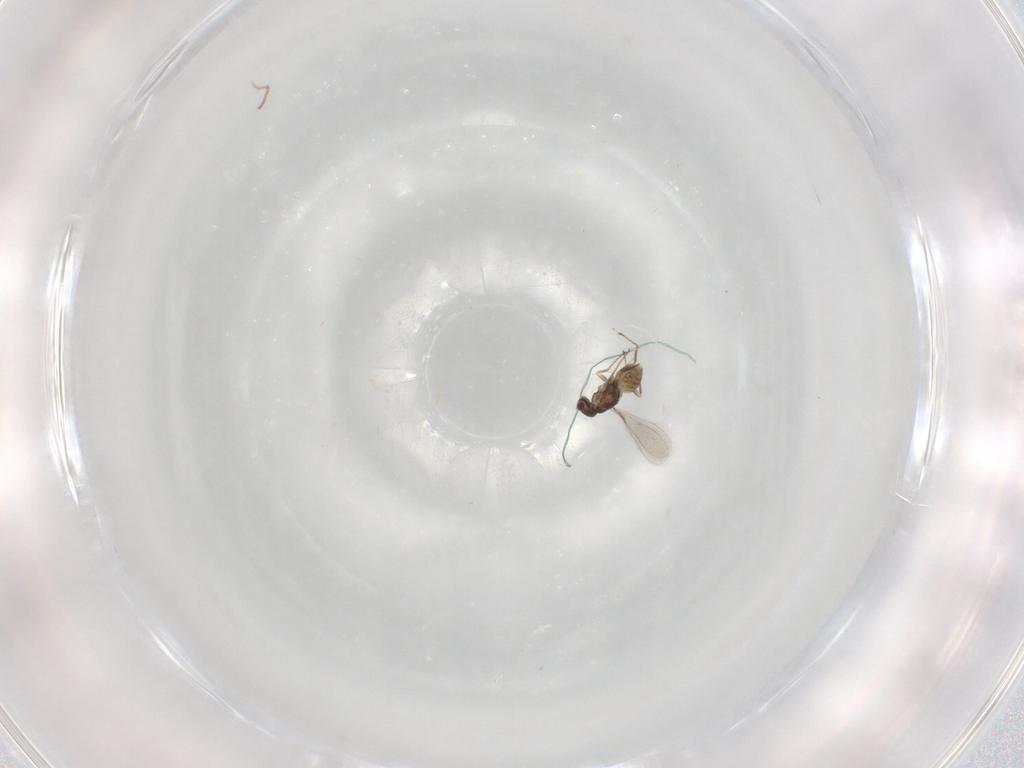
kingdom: Animalia
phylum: Arthropoda
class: Insecta
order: Hymenoptera
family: Mymaridae
